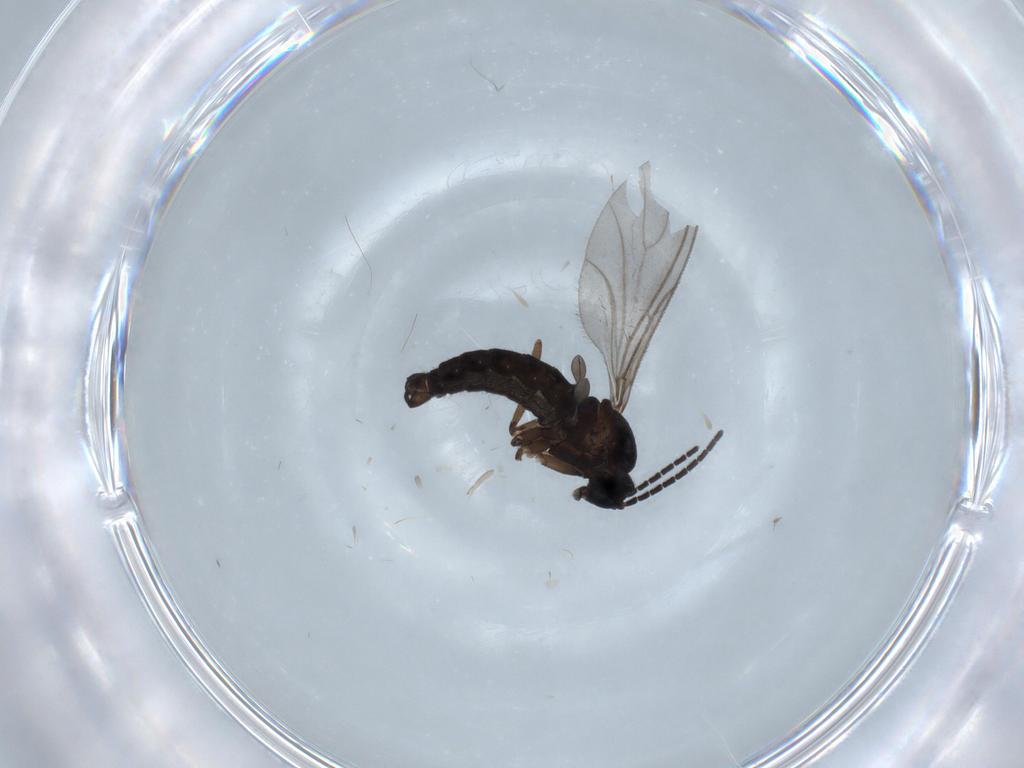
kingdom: Animalia
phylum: Arthropoda
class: Insecta
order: Diptera
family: Sciaridae
